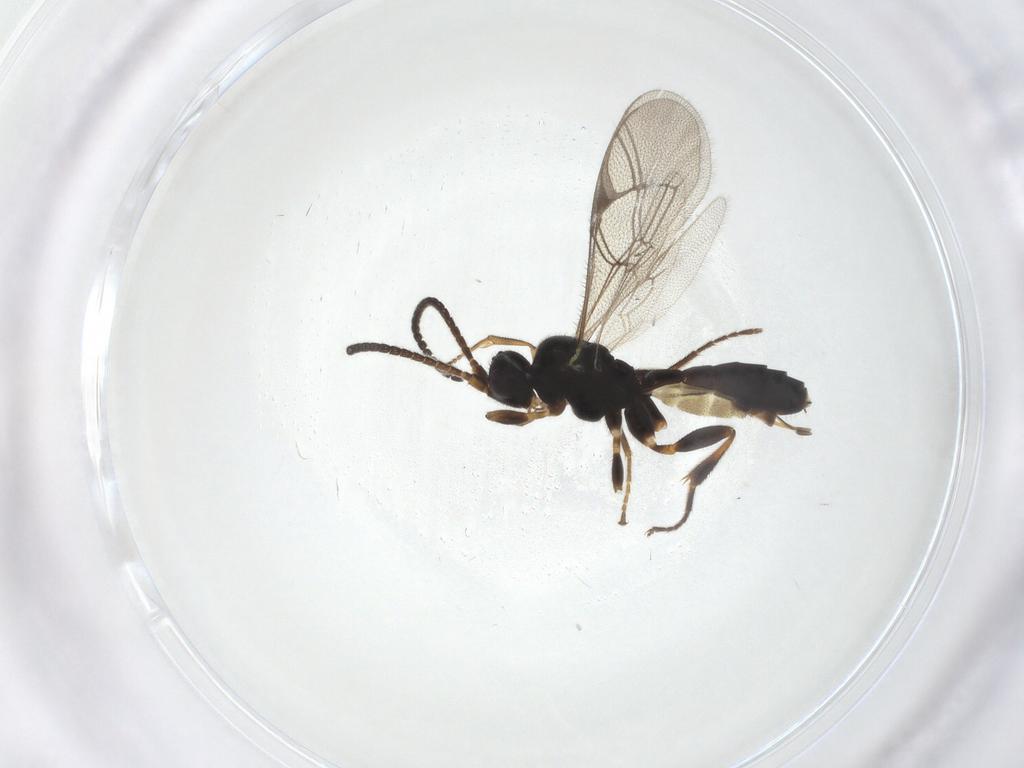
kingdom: Animalia
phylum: Arthropoda
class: Insecta
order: Hymenoptera
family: Ichneumonidae
